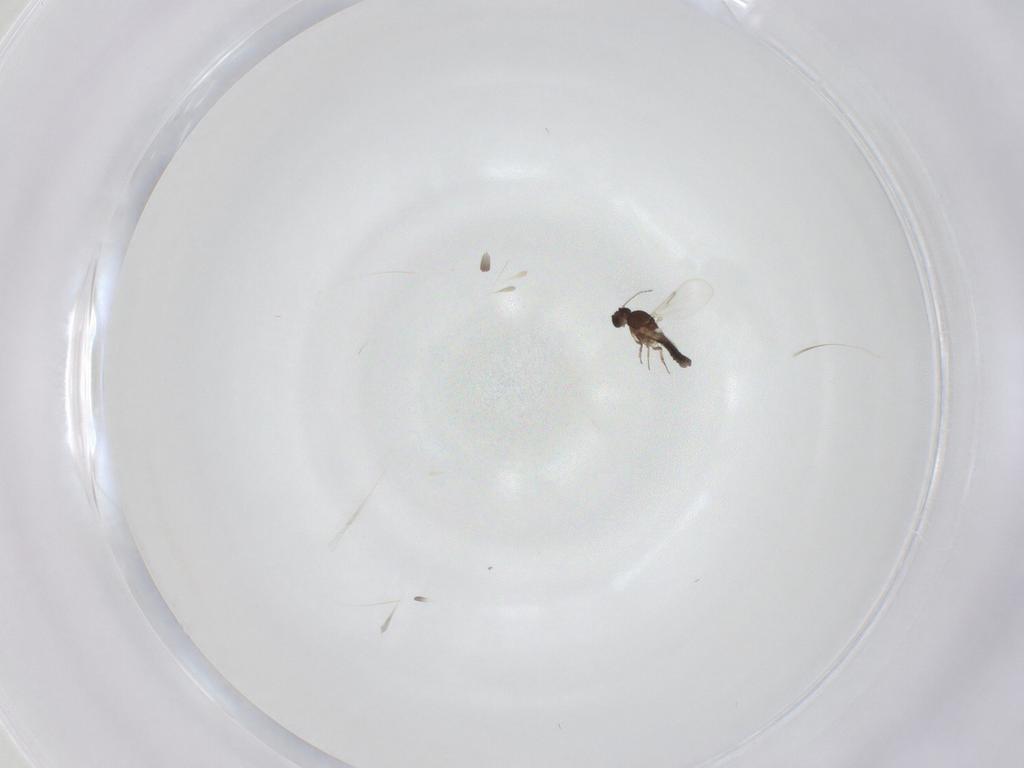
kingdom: Animalia
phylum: Arthropoda
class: Insecta
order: Diptera
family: Ceratopogonidae
